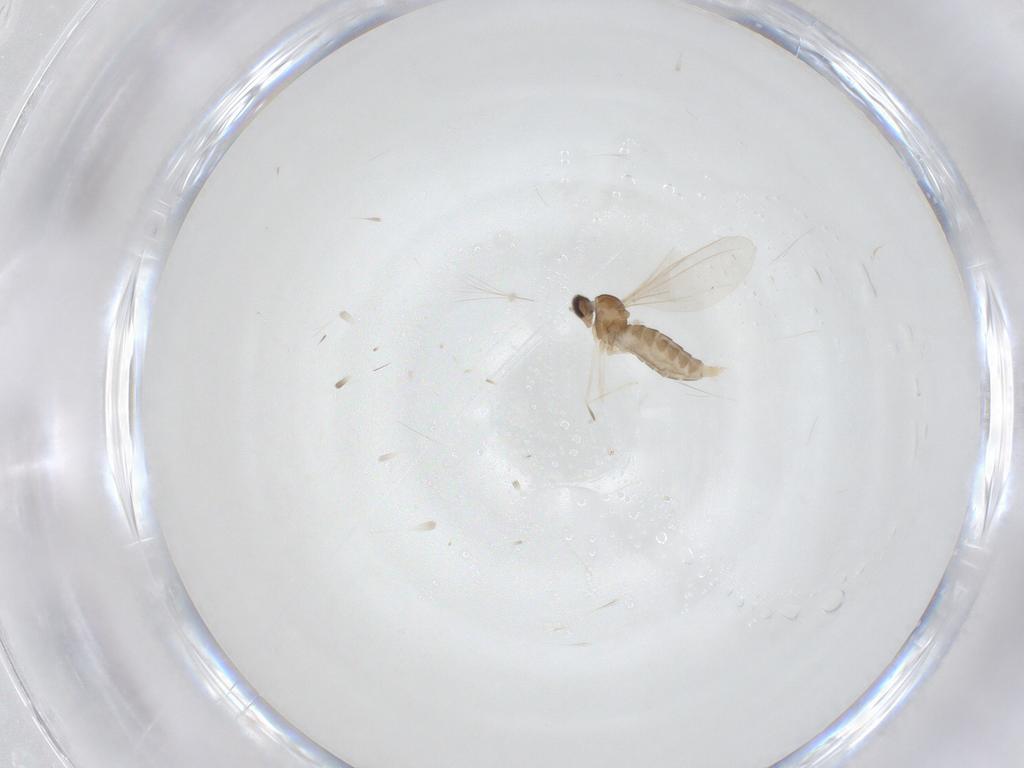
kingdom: Animalia
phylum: Arthropoda
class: Insecta
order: Diptera
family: Cecidomyiidae
